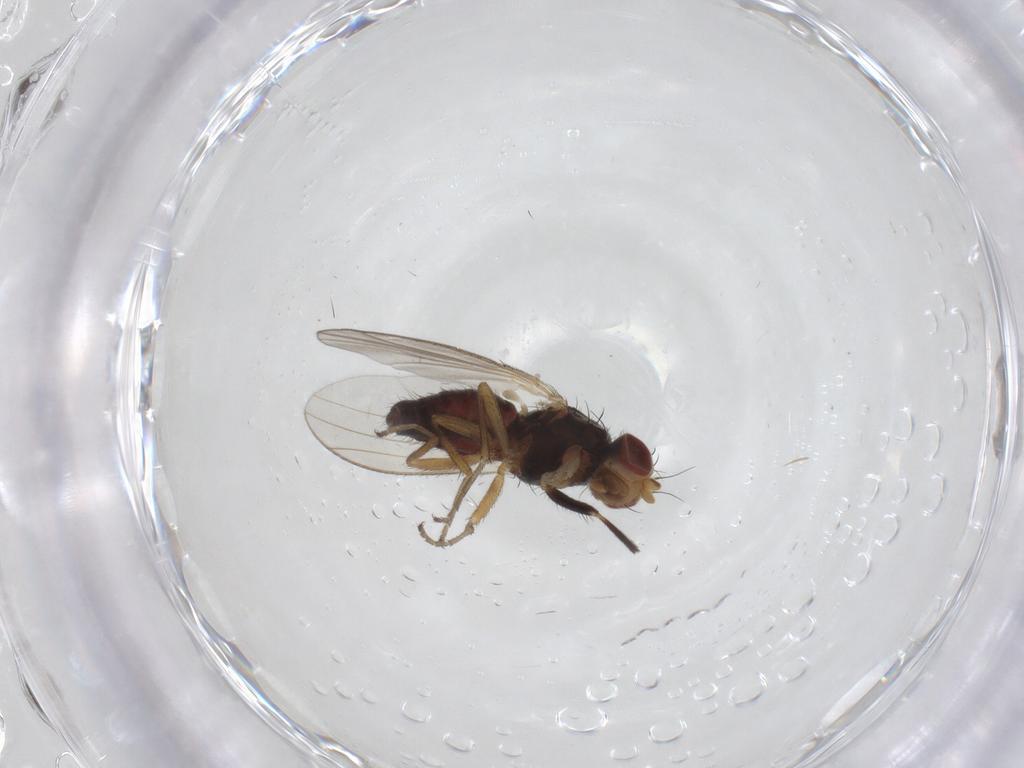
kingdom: Animalia
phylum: Arthropoda
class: Insecta
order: Diptera
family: Heleomyzidae
